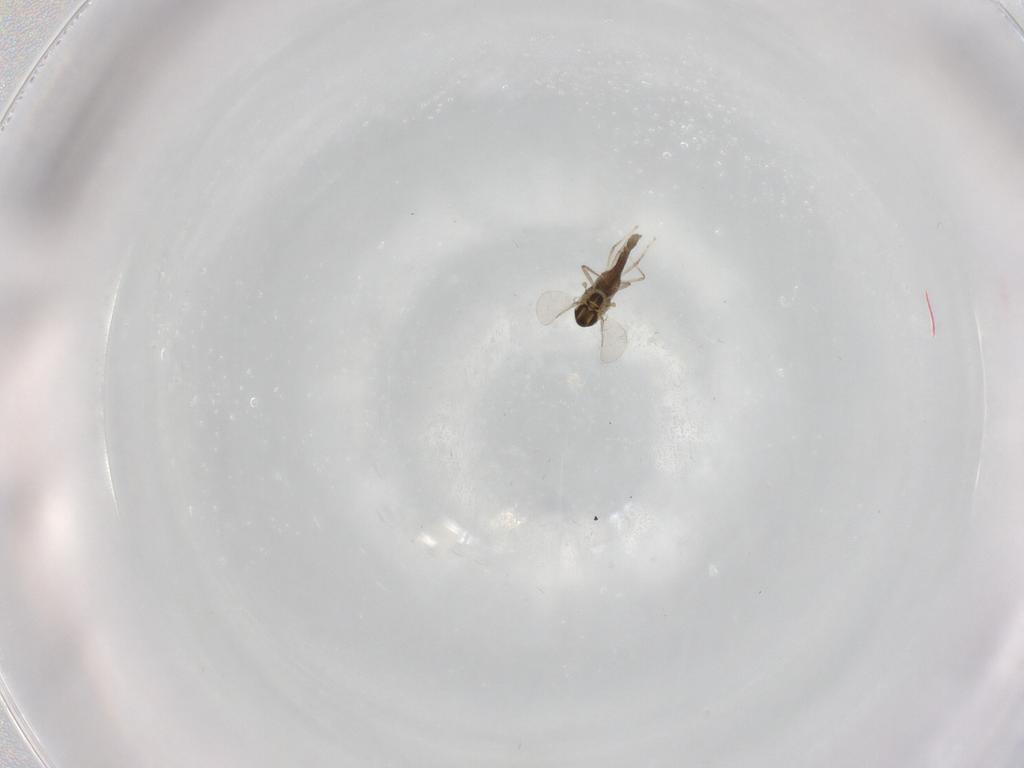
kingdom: Animalia
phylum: Arthropoda
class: Insecta
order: Diptera
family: Chironomidae
